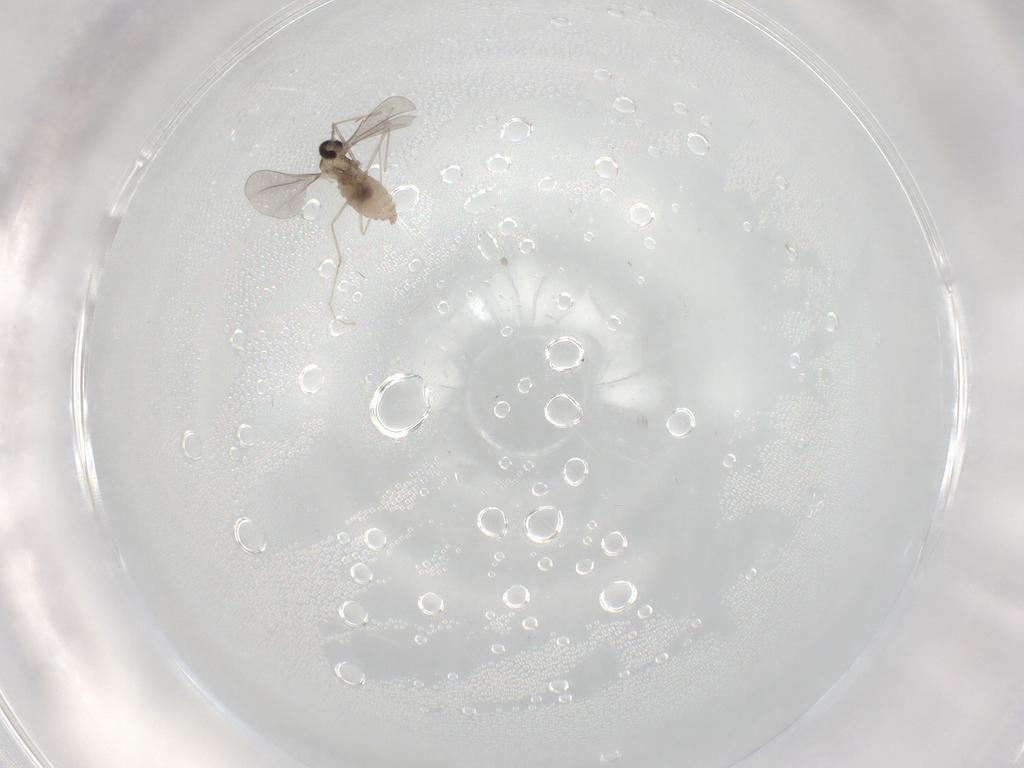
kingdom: Animalia
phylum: Arthropoda
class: Insecta
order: Diptera
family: Cecidomyiidae
